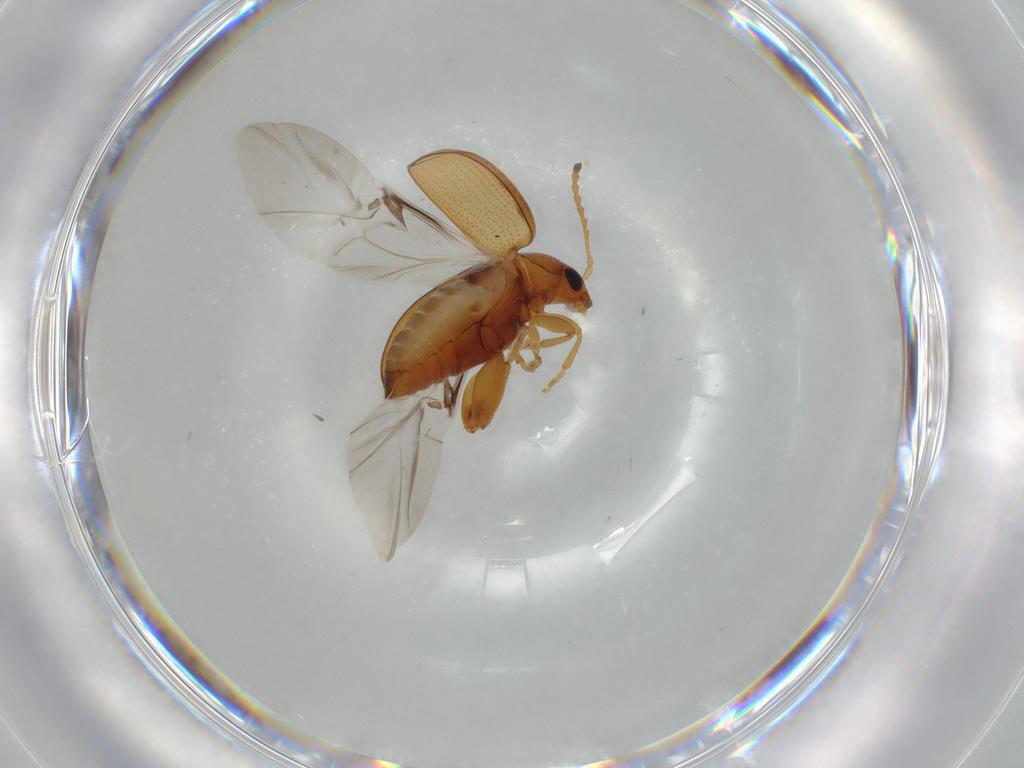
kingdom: Animalia
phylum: Arthropoda
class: Insecta
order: Coleoptera
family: Chrysomelidae
